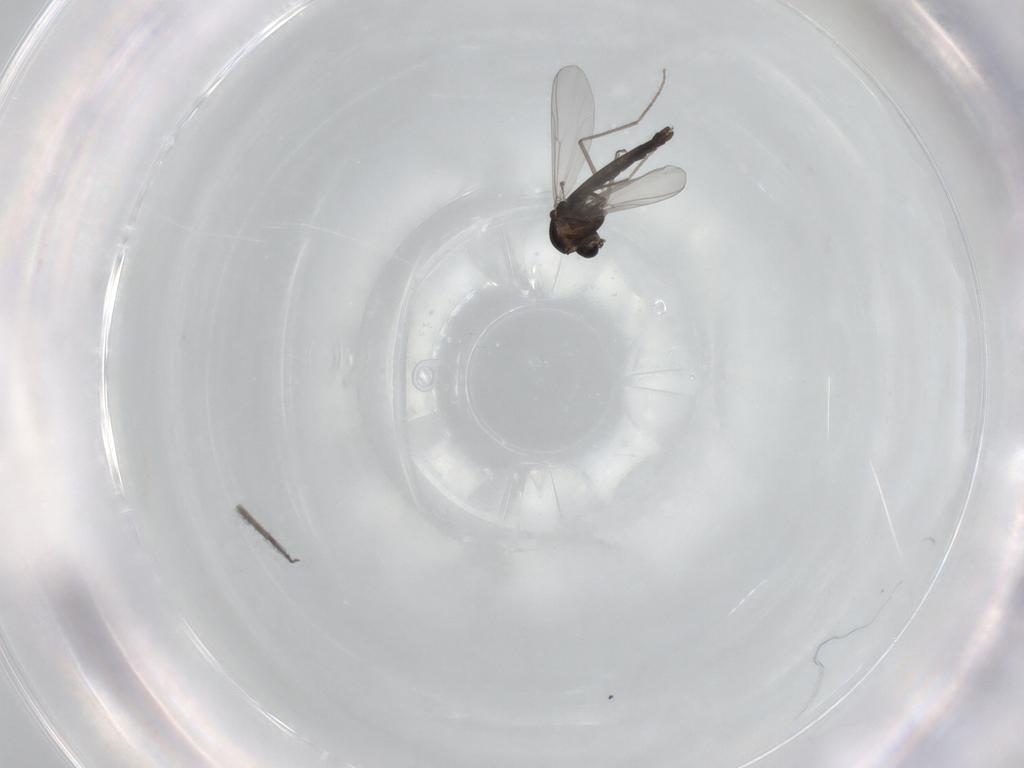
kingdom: Animalia
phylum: Arthropoda
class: Insecta
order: Diptera
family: Chironomidae
